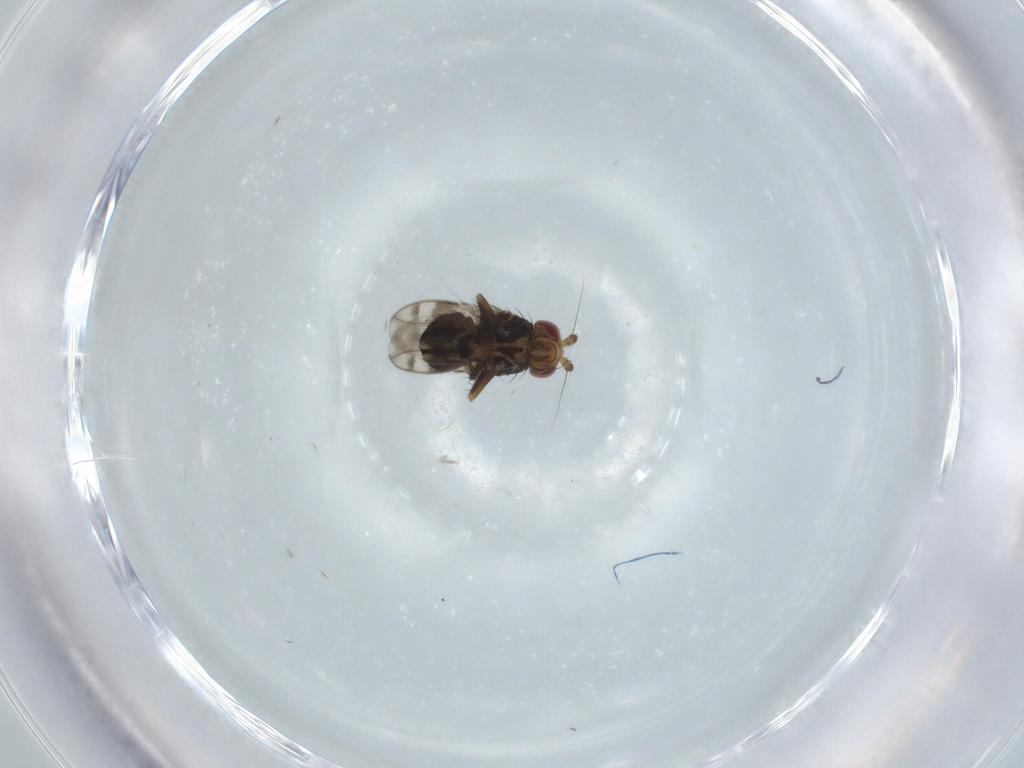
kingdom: Animalia
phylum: Arthropoda
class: Insecta
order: Diptera
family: Sphaeroceridae
